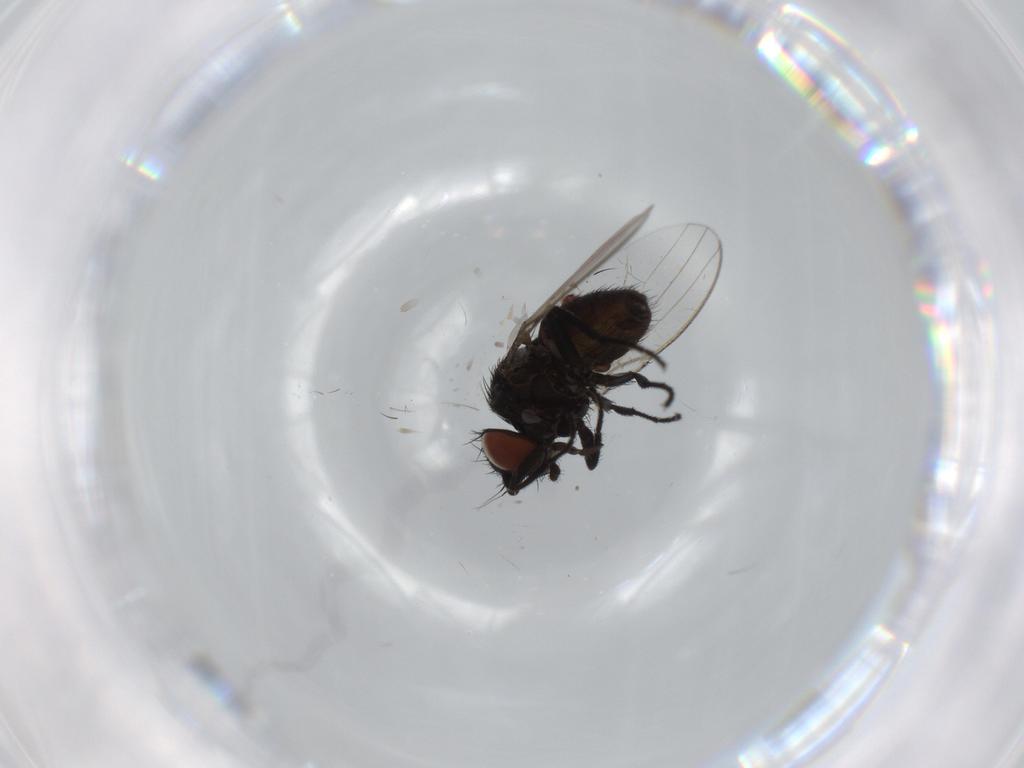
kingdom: Animalia
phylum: Arthropoda
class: Insecta
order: Diptera
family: Milichiidae
